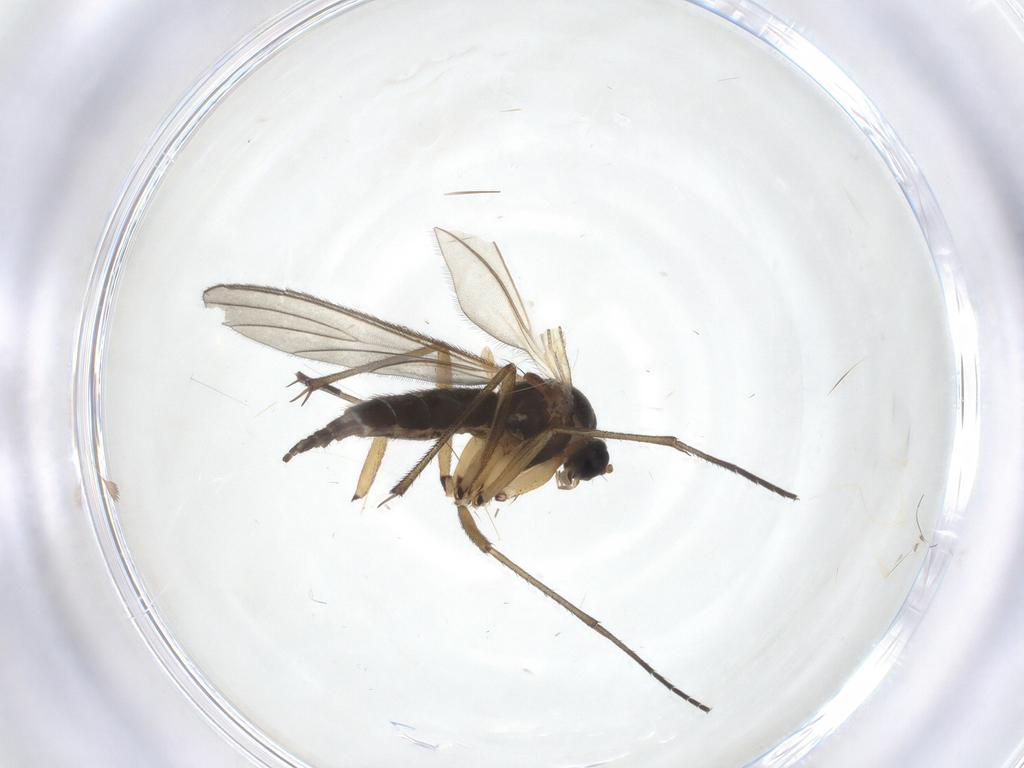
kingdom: Animalia
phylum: Arthropoda
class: Insecta
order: Diptera
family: Sciaridae
